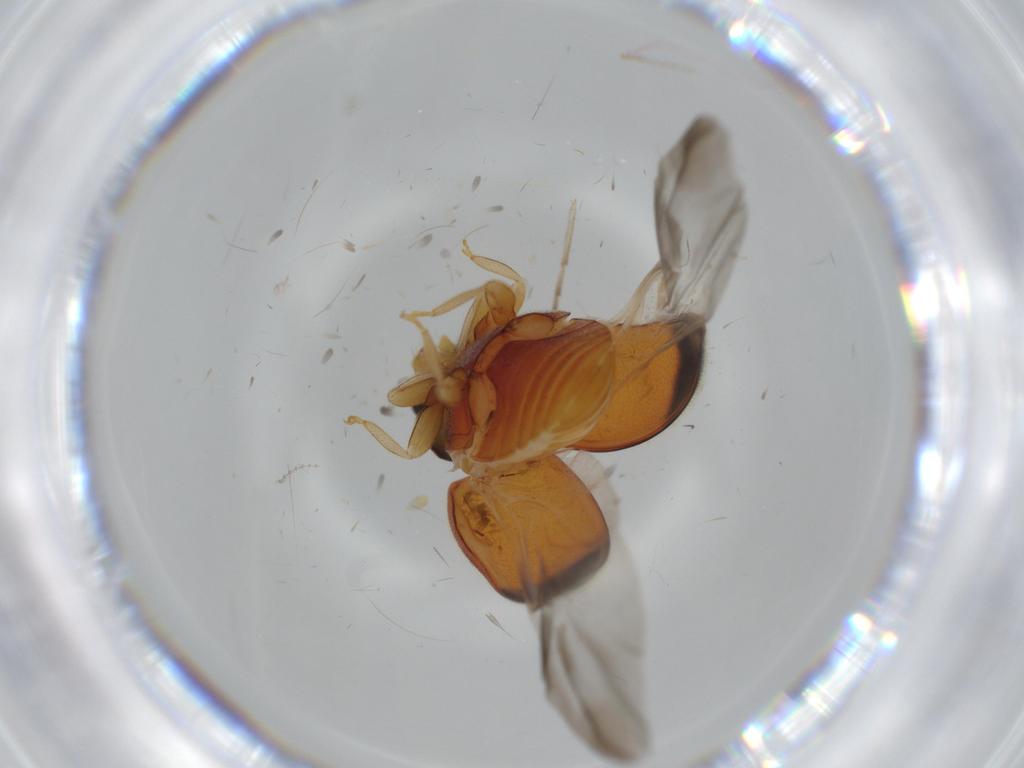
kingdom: Animalia
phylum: Arthropoda
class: Insecta
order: Coleoptera
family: Coccinellidae
